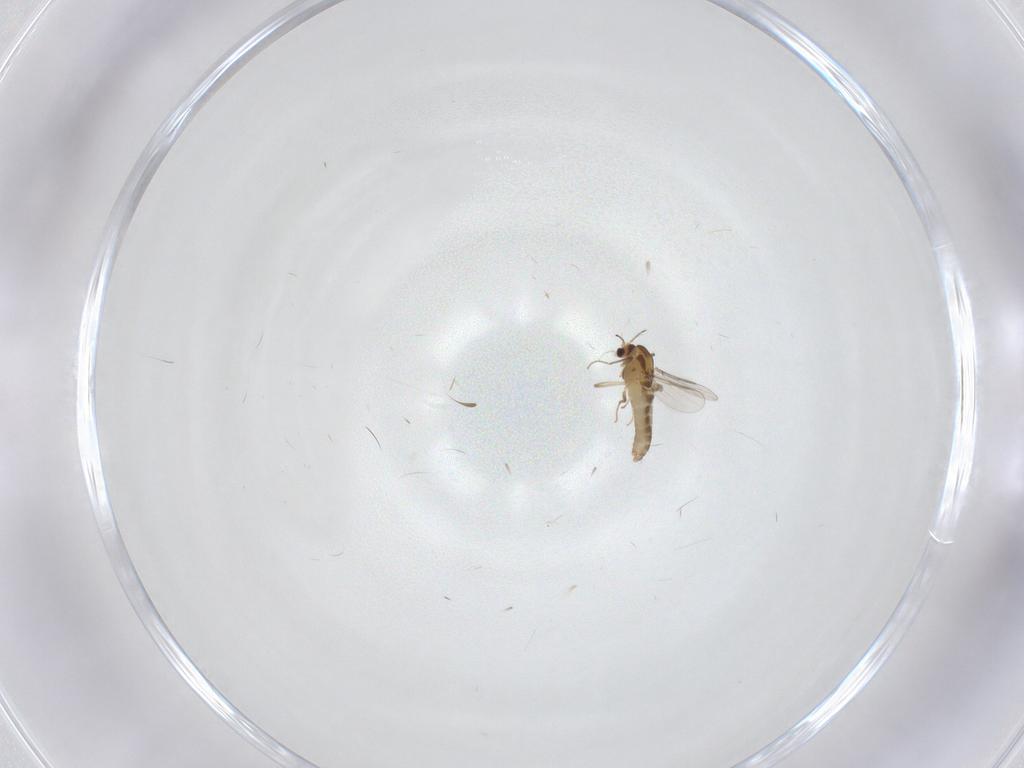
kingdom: Animalia
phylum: Arthropoda
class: Insecta
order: Diptera
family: Chironomidae
